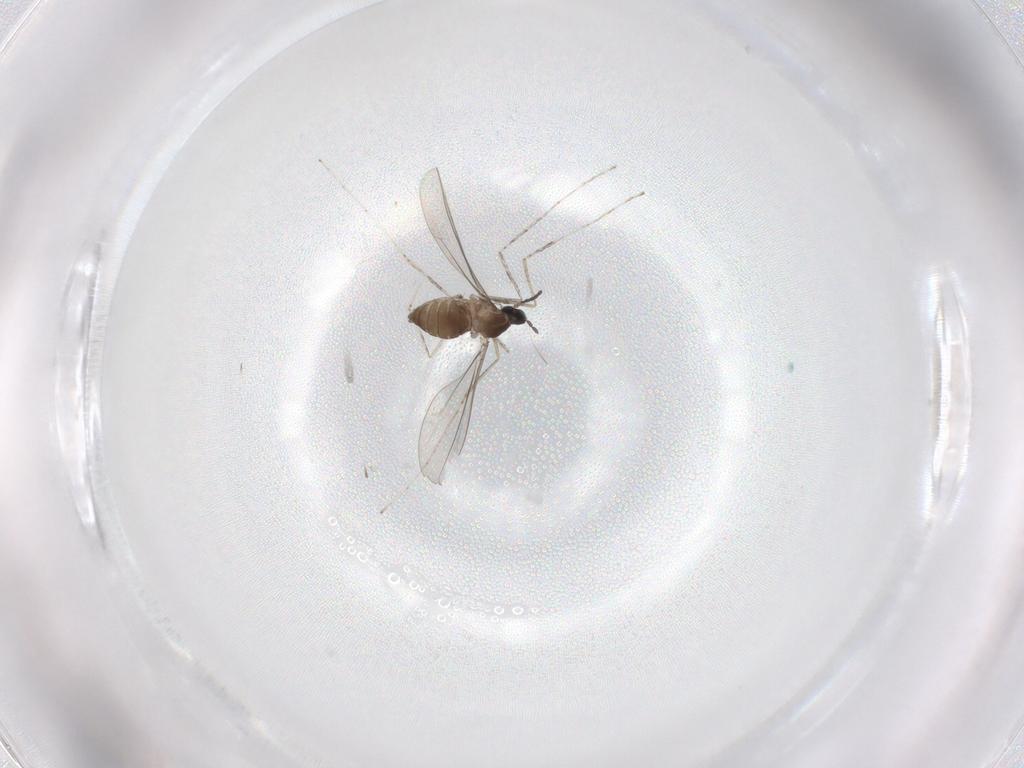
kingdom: Animalia
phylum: Arthropoda
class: Insecta
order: Diptera
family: Cecidomyiidae
